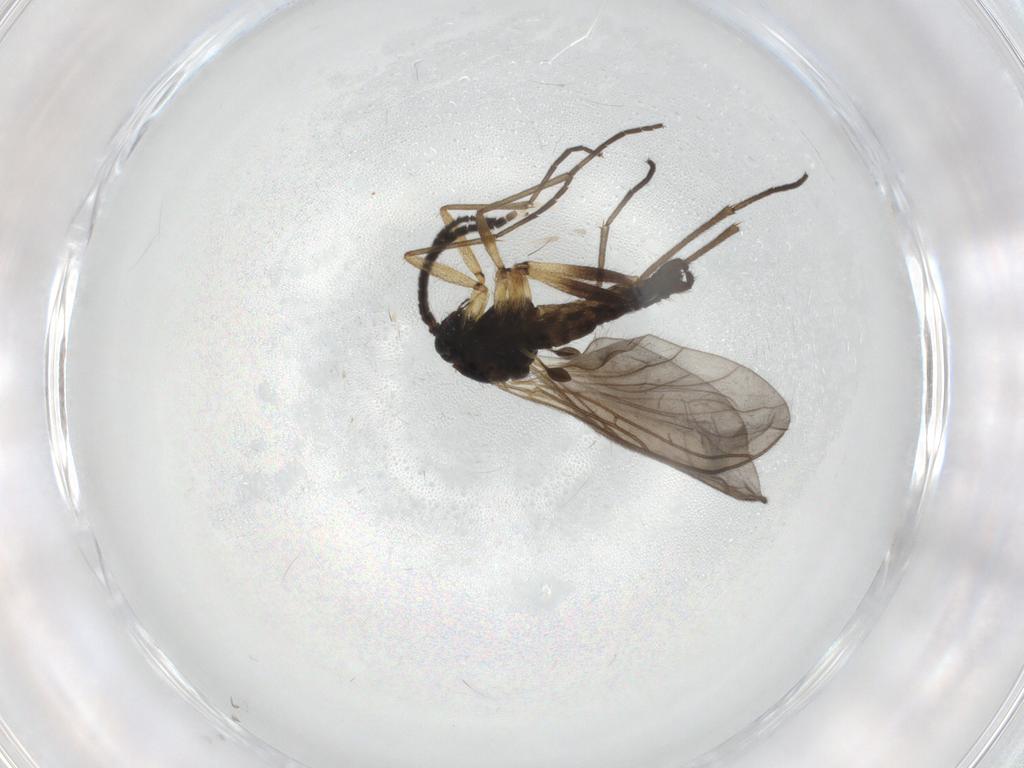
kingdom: Animalia
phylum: Arthropoda
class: Insecta
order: Diptera
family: Sciaridae
